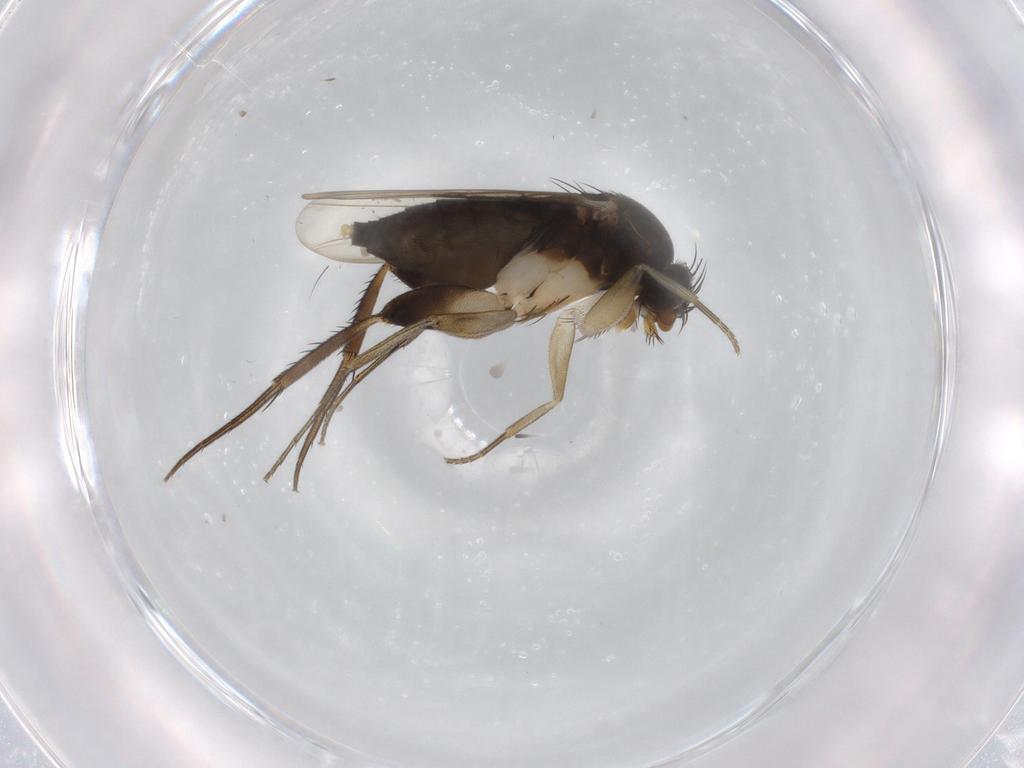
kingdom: Animalia
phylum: Arthropoda
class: Insecta
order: Diptera
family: Phoridae
